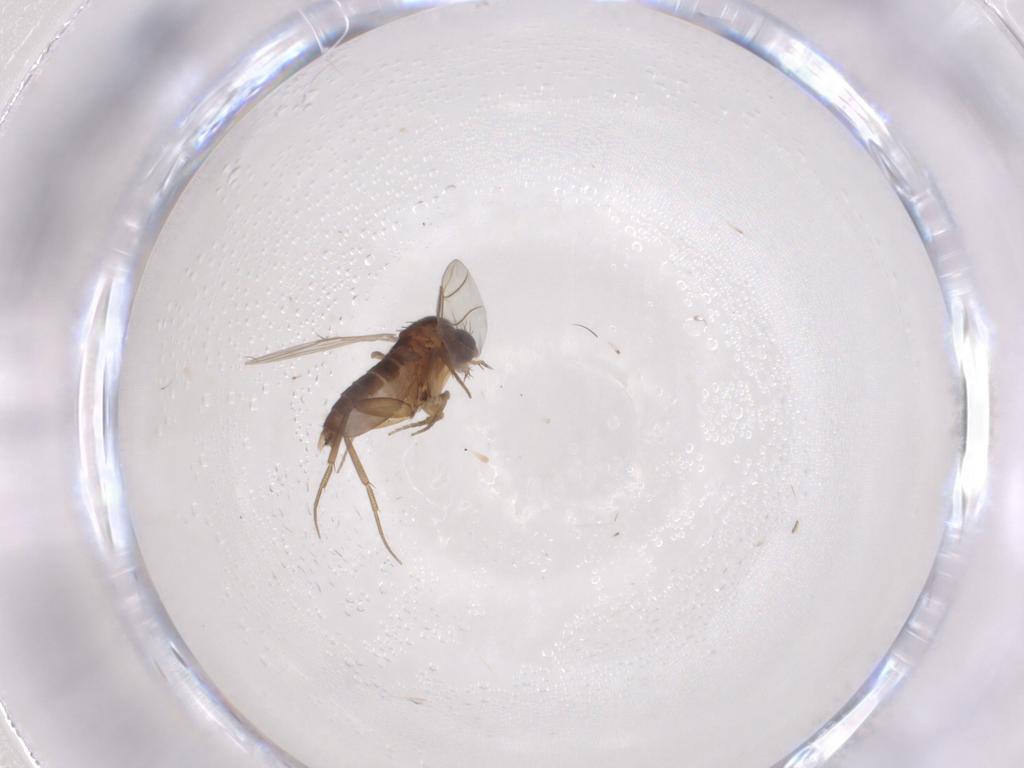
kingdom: Animalia
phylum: Arthropoda
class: Insecta
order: Diptera
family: Phoridae
